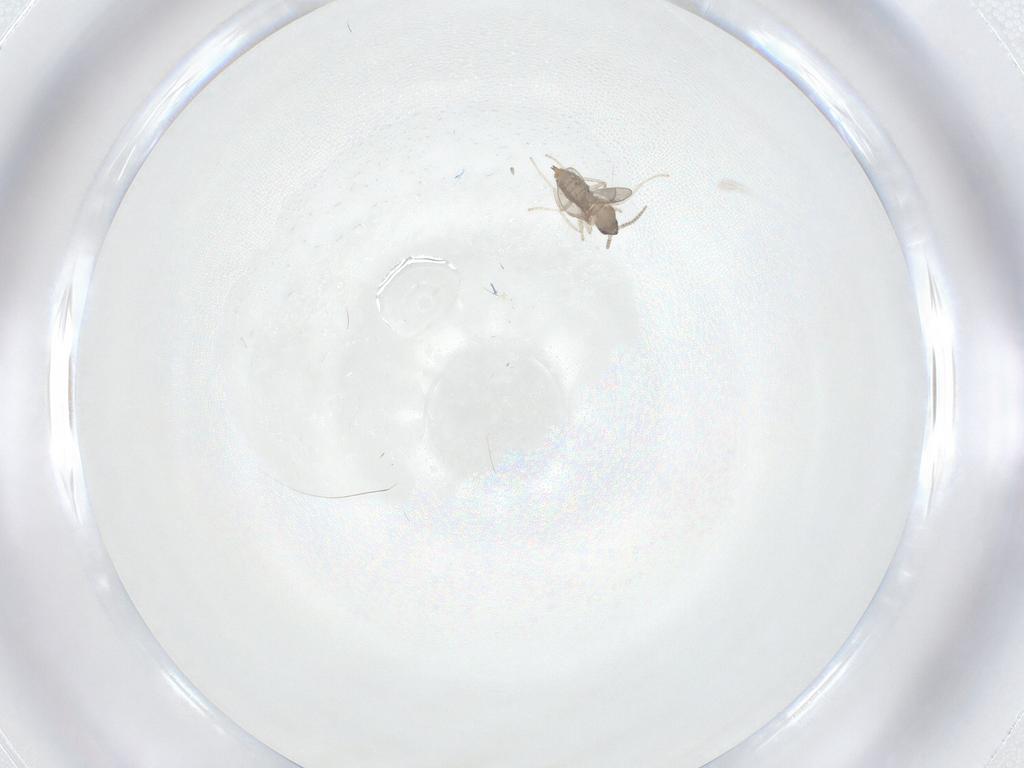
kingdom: Animalia
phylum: Arthropoda
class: Insecta
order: Diptera
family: Cecidomyiidae
